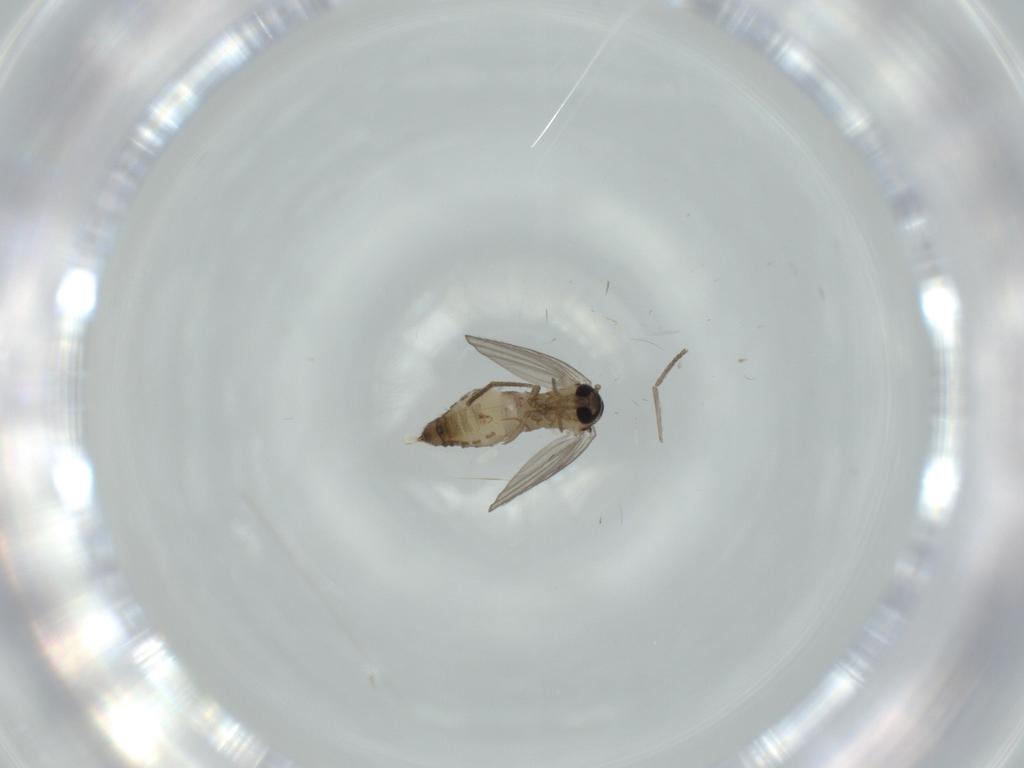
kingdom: Animalia
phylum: Arthropoda
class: Insecta
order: Diptera
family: Psychodidae
